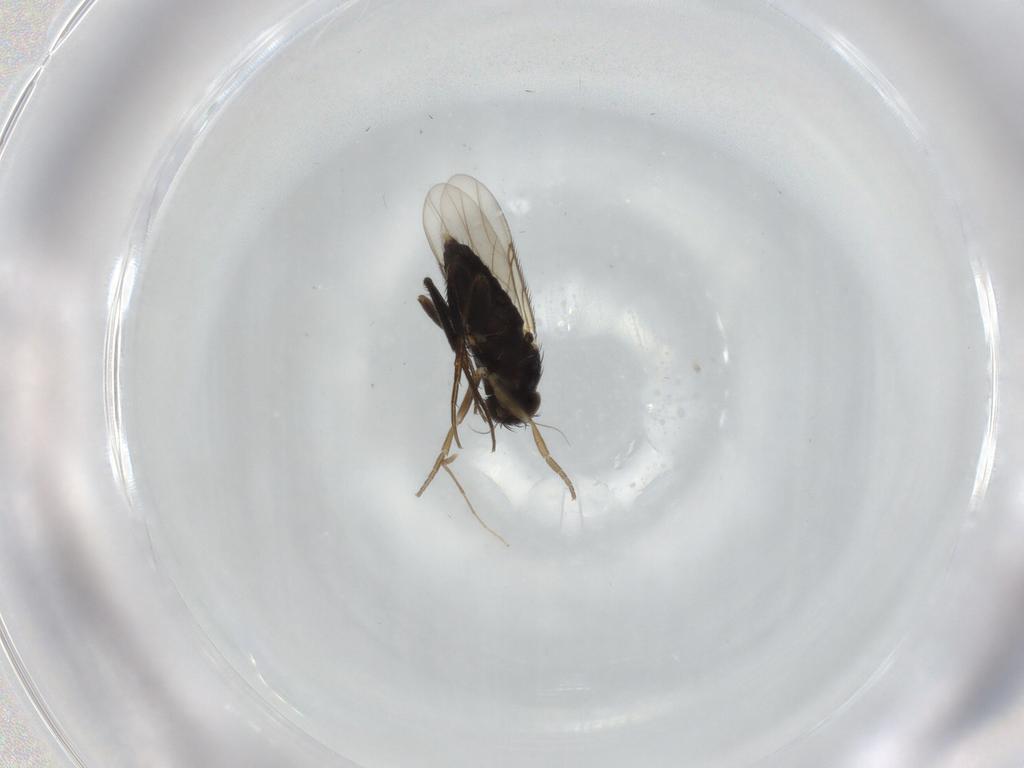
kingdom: Animalia
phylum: Arthropoda
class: Insecta
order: Diptera
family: Phoridae
